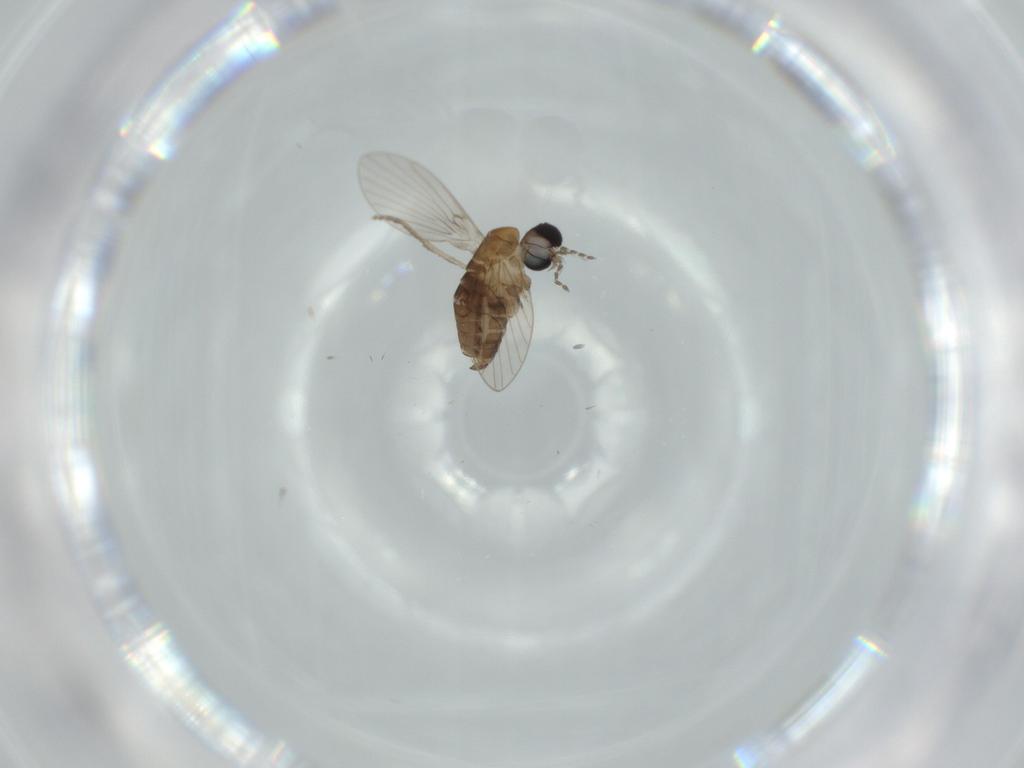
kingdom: Animalia
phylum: Arthropoda
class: Insecta
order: Diptera
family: Psychodidae
